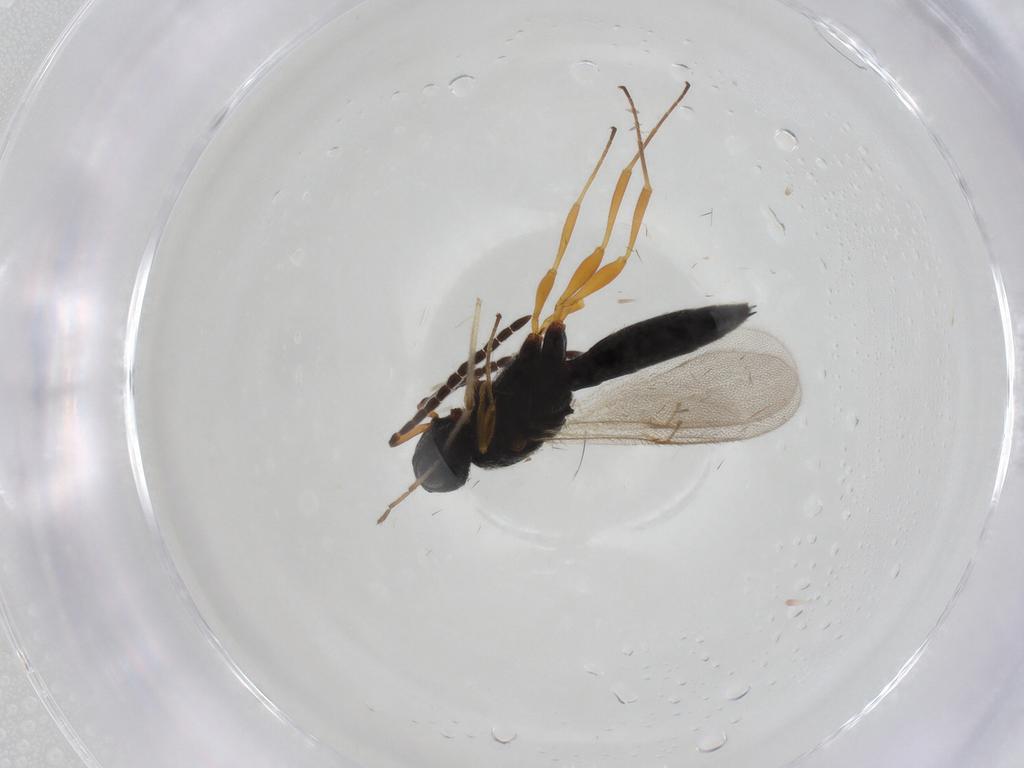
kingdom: Animalia
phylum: Arthropoda
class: Insecta
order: Hymenoptera
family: Scelionidae
